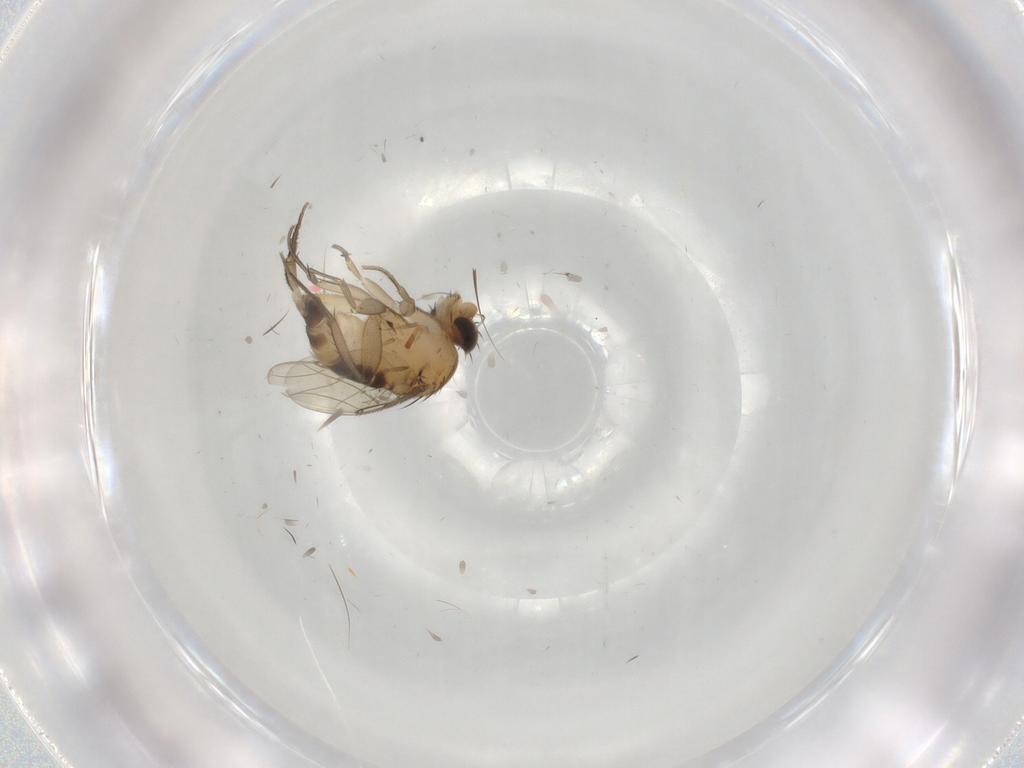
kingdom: Animalia
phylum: Arthropoda
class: Insecta
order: Diptera
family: Phoridae
